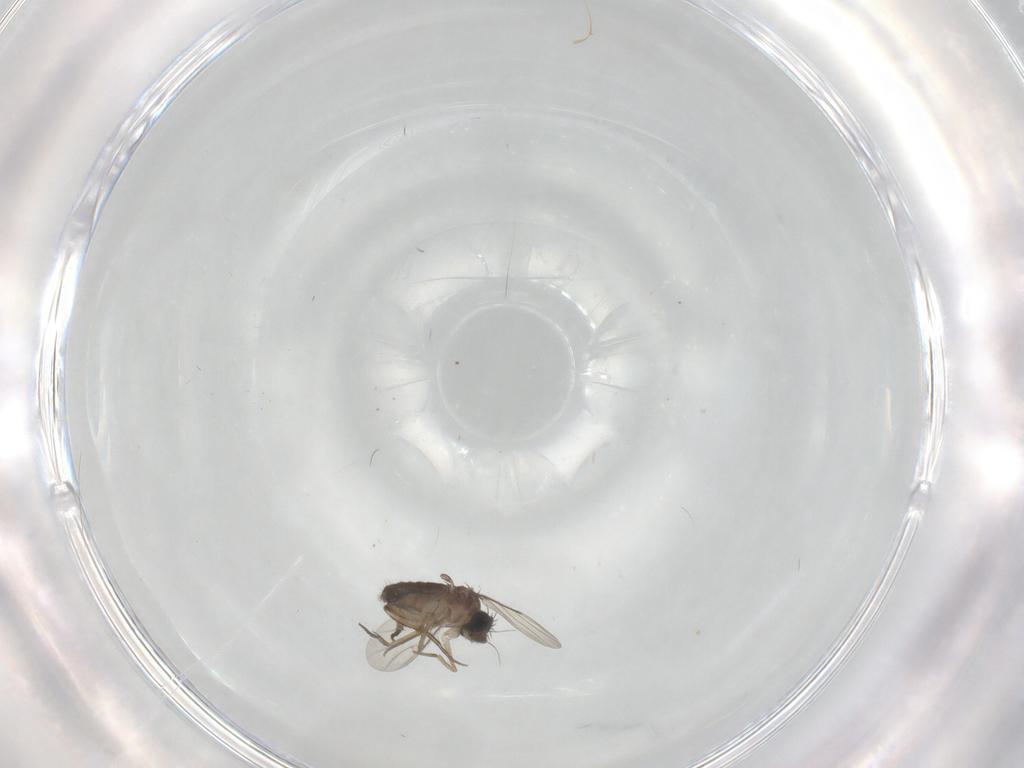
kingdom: Animalia
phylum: Arthropoda
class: Insecta
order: Diptera
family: Phoridae
